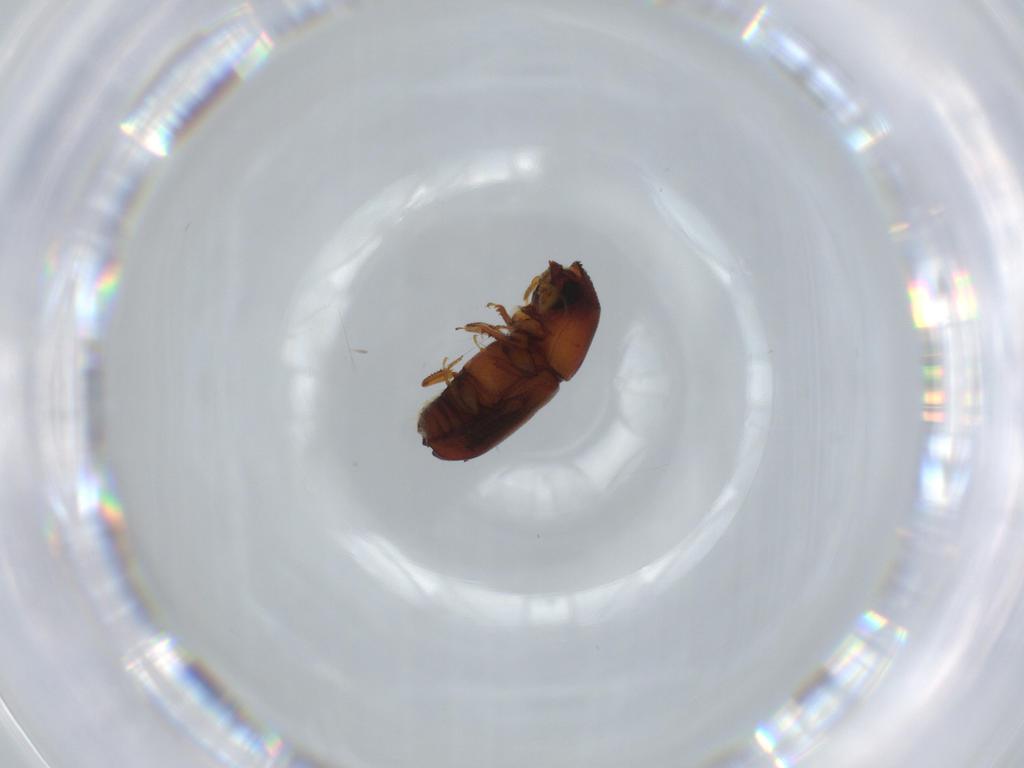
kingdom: Animalia
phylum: Arthropoda
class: Insecta
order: Coleoptera
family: Curculionidae
